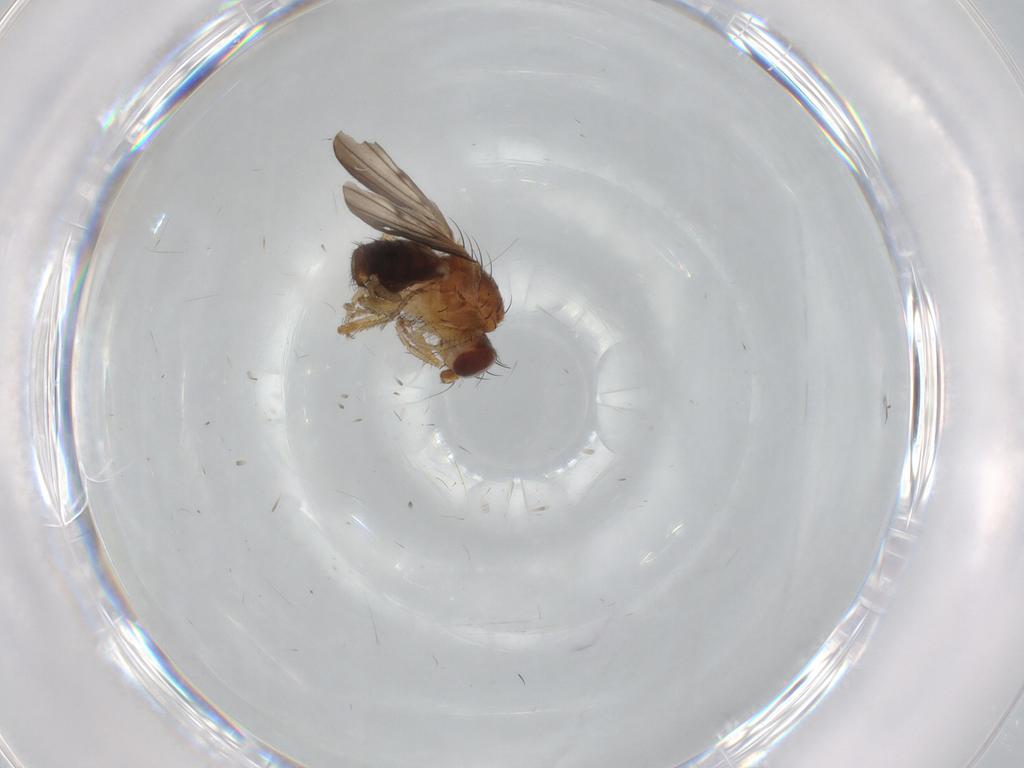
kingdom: Animalia
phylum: Arthropoda
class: Insecta
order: Diptera
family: Heleomyzidae
